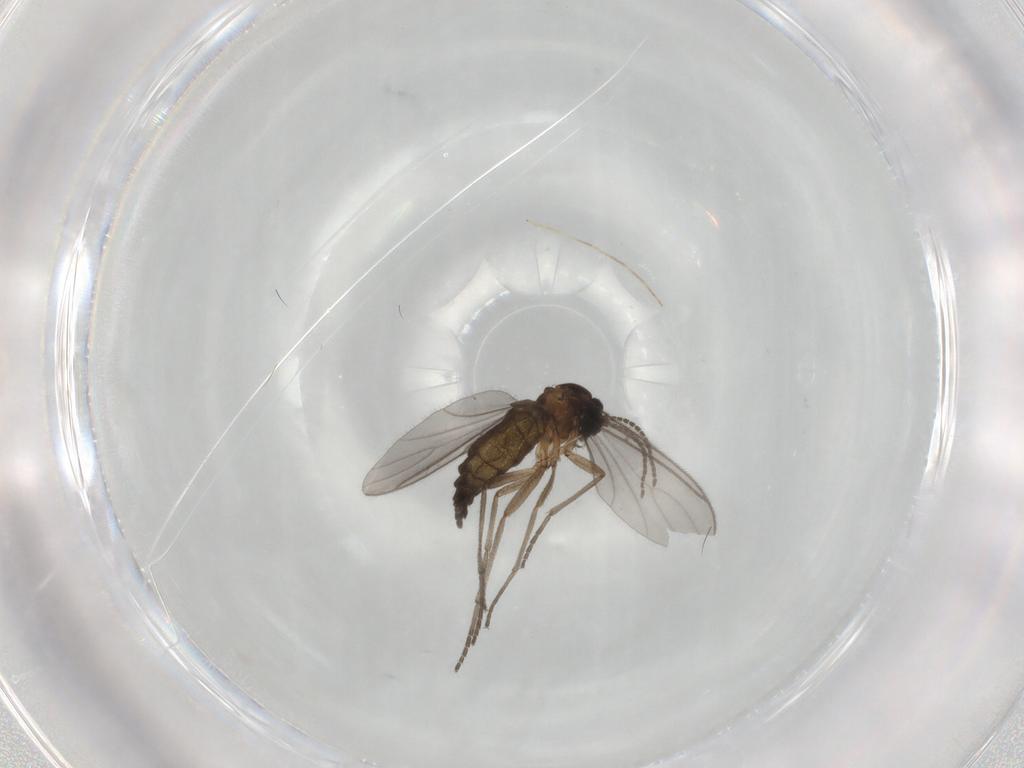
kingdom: Animalia
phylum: Arthropoda
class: Insecta
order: Diptera
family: Sciaridae
